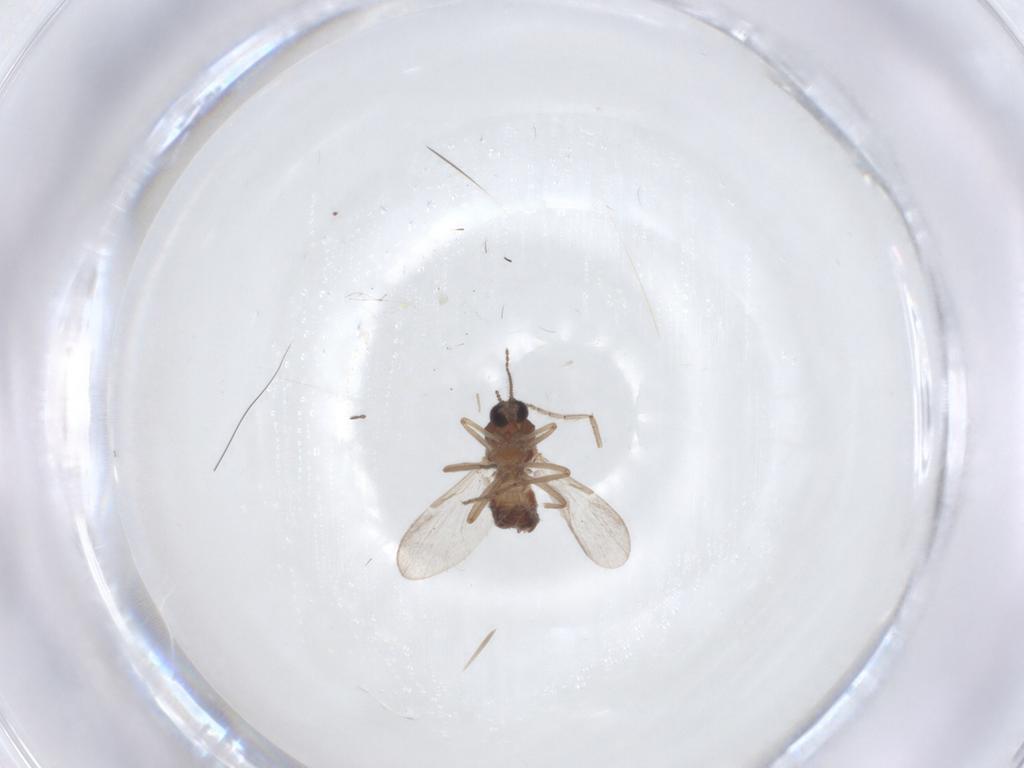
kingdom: Animalia
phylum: Arthropoda
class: Insecta
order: Diptera
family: Ceratopogonidae
